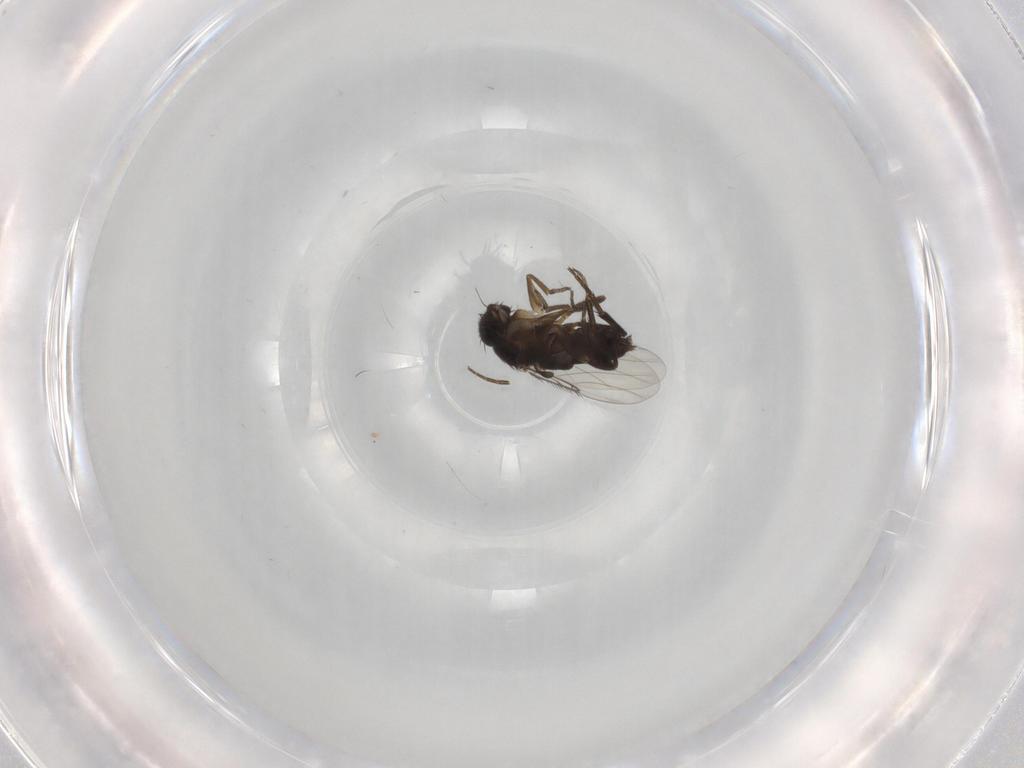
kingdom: Animalia
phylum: Arthropoda
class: Insecta
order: Diptera
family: Phoridae
